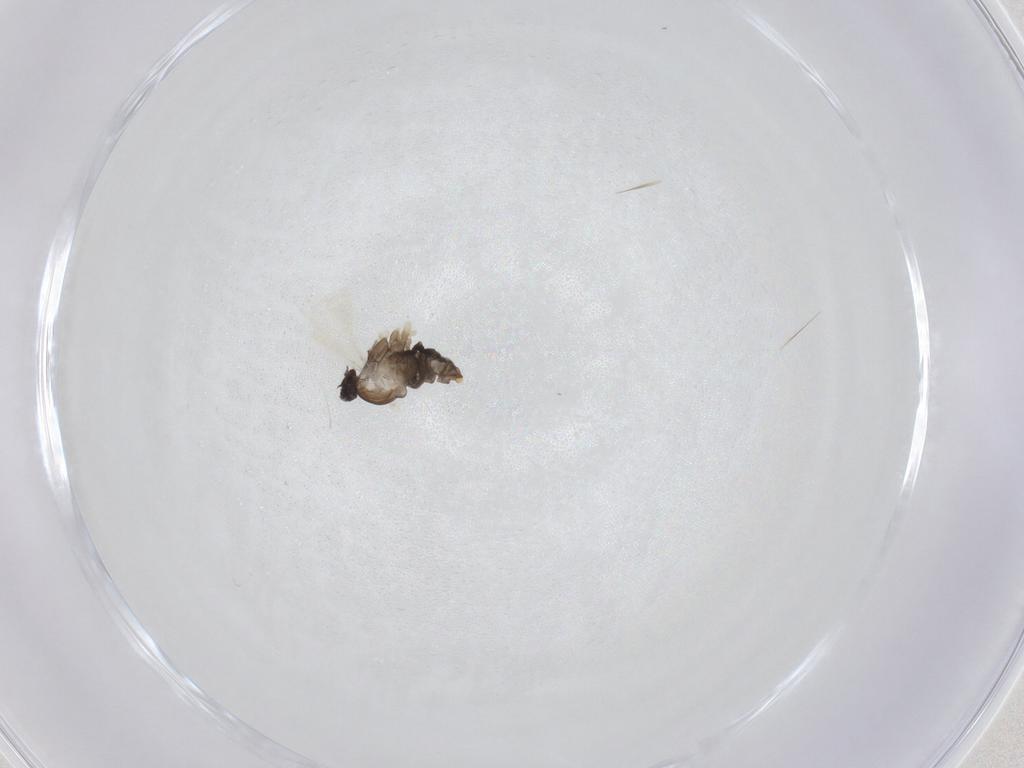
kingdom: Animalia
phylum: Arthropoda
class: Insecta
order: Diptera
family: Cecidomyiidae
